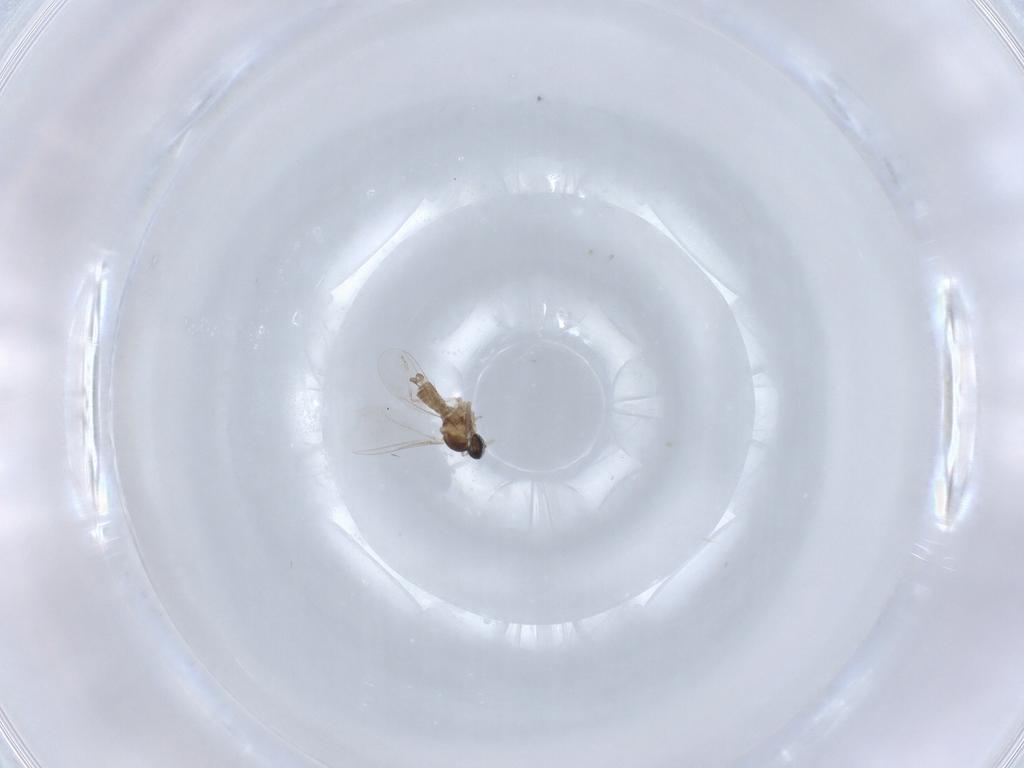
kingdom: Animalia
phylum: Arthropoda
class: Insecta
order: Diptera
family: Cecidomyiidae
